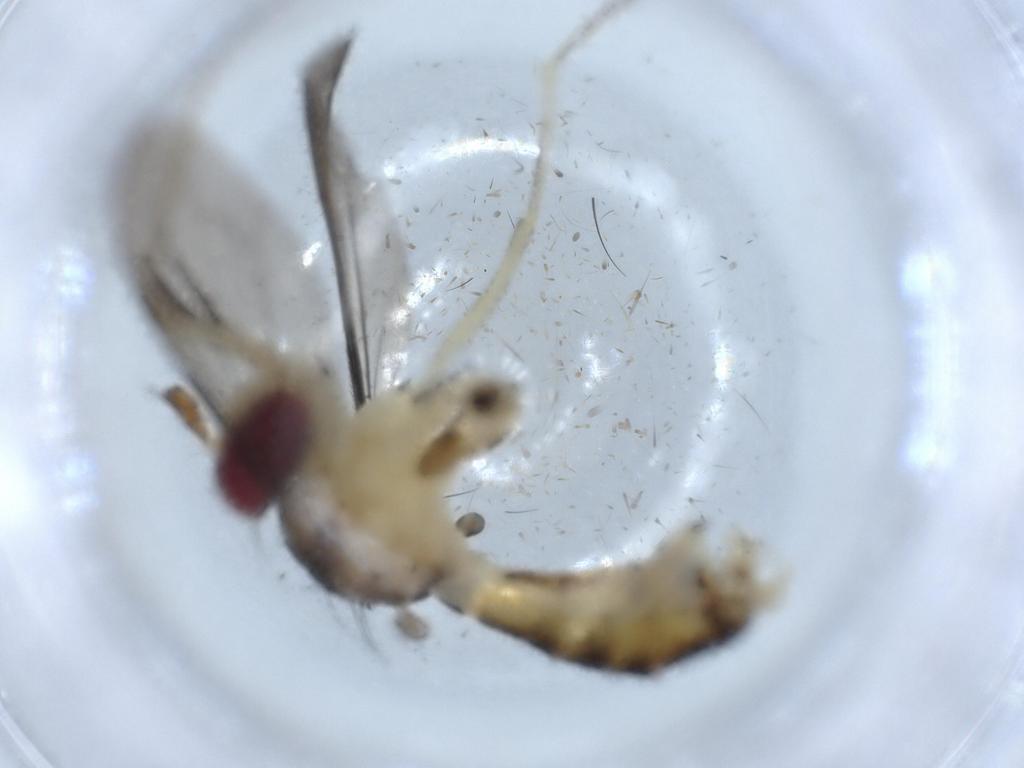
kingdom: Animalia
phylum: Arthropoda
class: Insecta
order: Diptera
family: Conopidae
